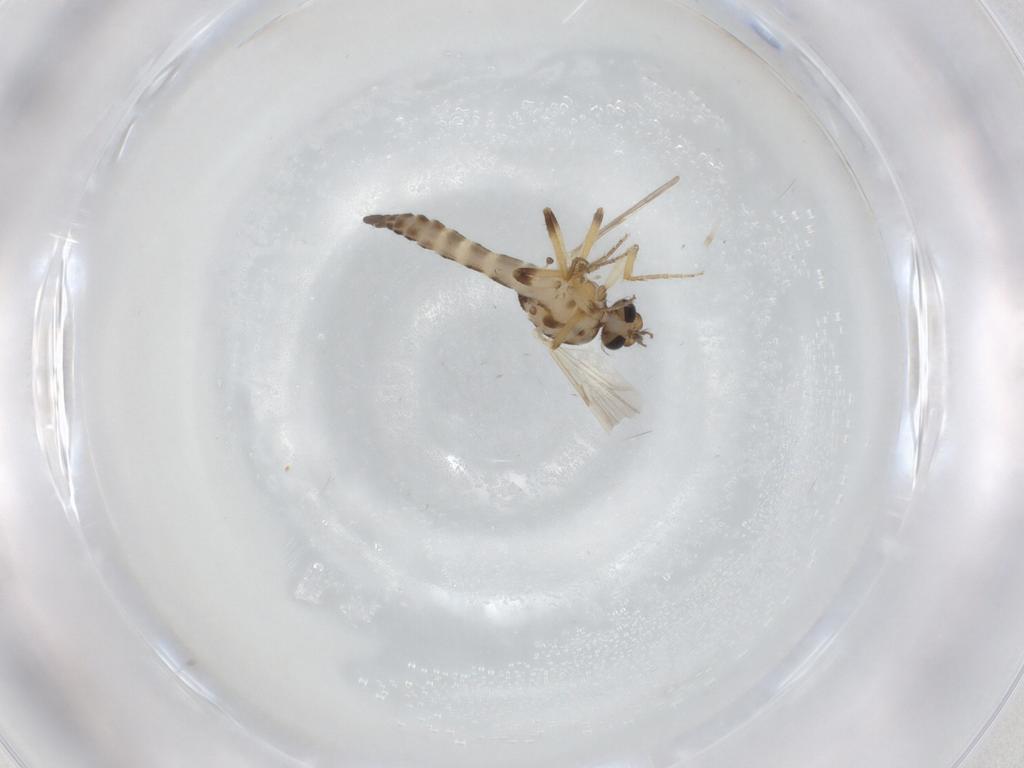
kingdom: Animalia
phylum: Arthropoda
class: Insecta
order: Diptera
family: Ceratopogonidae
